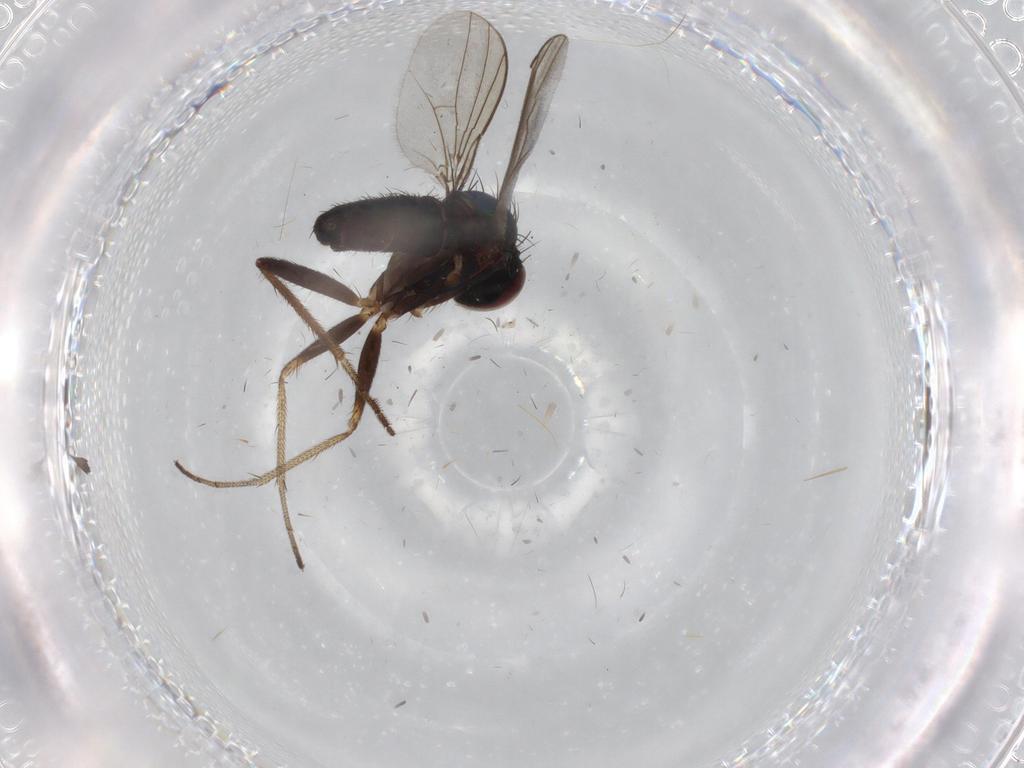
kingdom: Animalia
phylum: Arthropoda
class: Insecta
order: Diptera
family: Dolichopodidae
